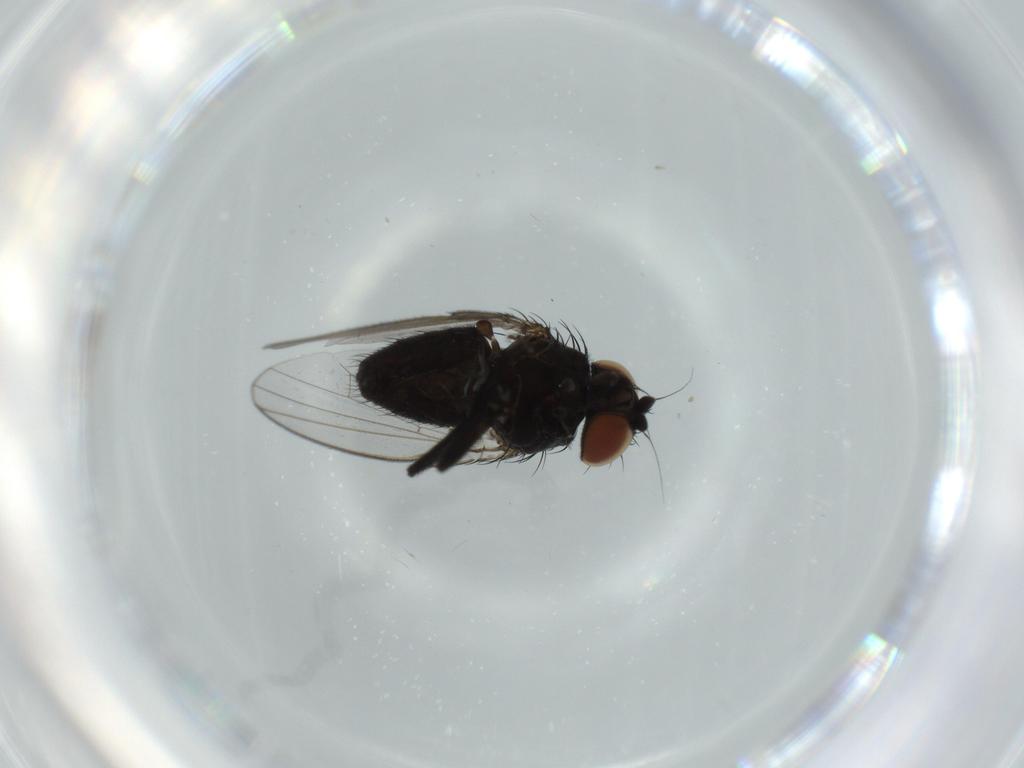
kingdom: Animalia
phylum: Arthropoda
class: Insecta
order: Diptera
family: Milichiidae
